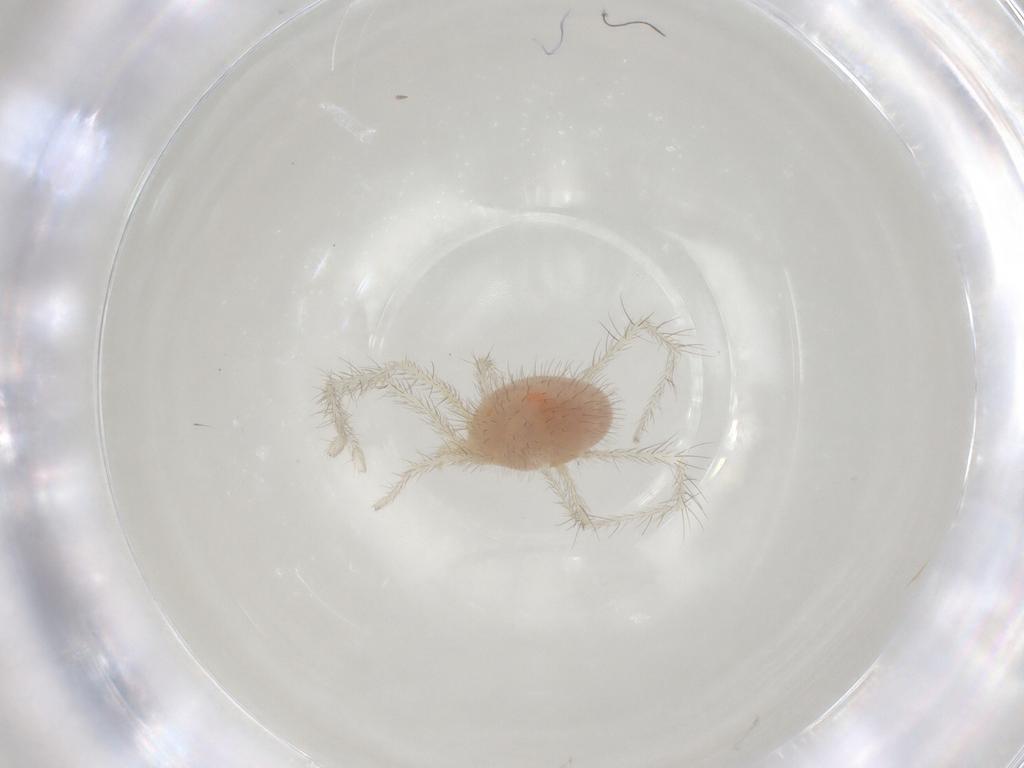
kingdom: Animalia
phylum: Arthropoda
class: Arachnida
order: Trombidiformes
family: Erythraeidae
